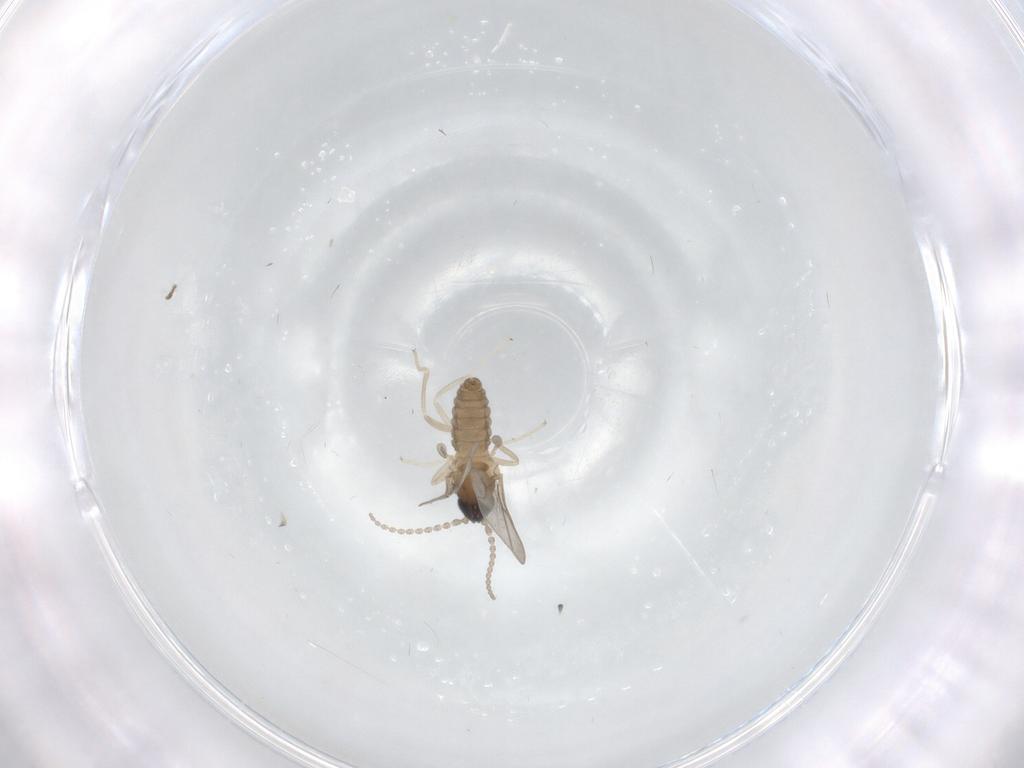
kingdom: Animalia
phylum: Arthropoda
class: Insecta
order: Diptera
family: Cecidomyiidae
